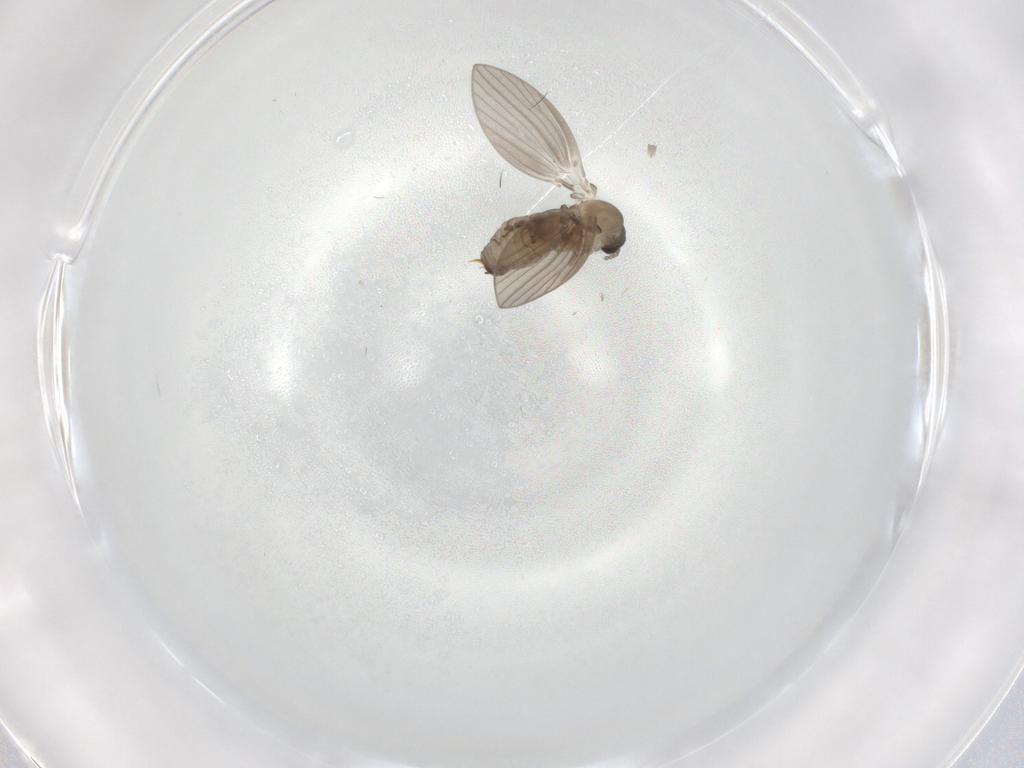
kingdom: Animalia
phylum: Arthropoda
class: Insecta
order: Diptera
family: Psychodidae
